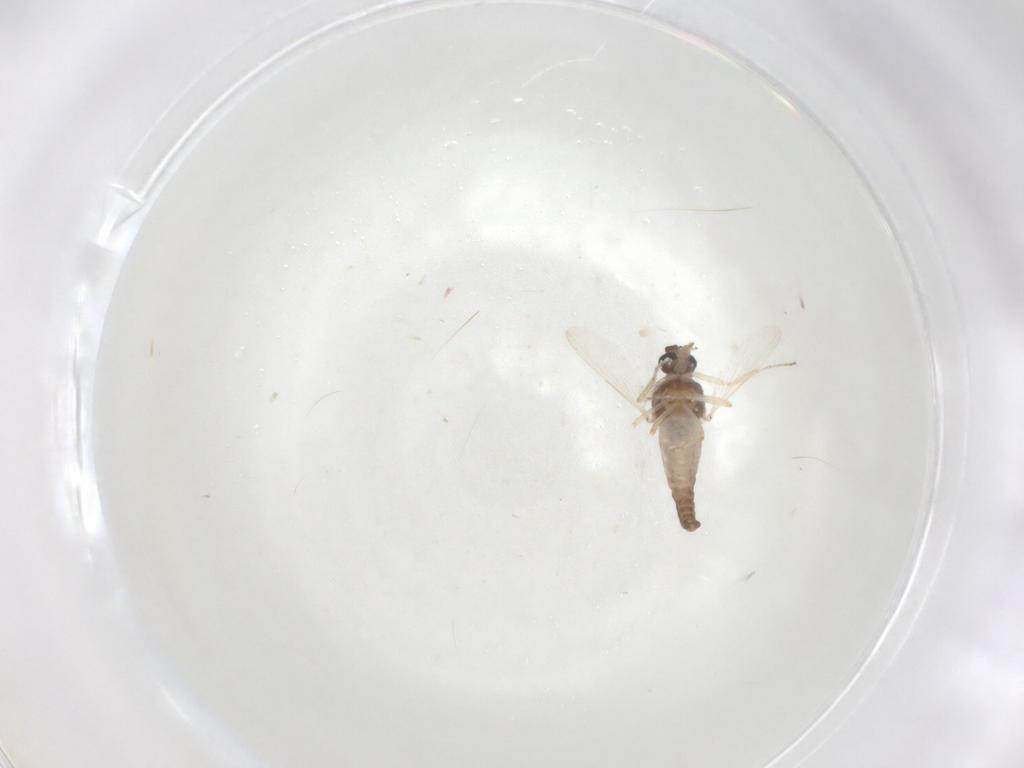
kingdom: Animalia
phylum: Arthropoda
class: Insecta
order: Diptera
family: Ceratopogonidae
